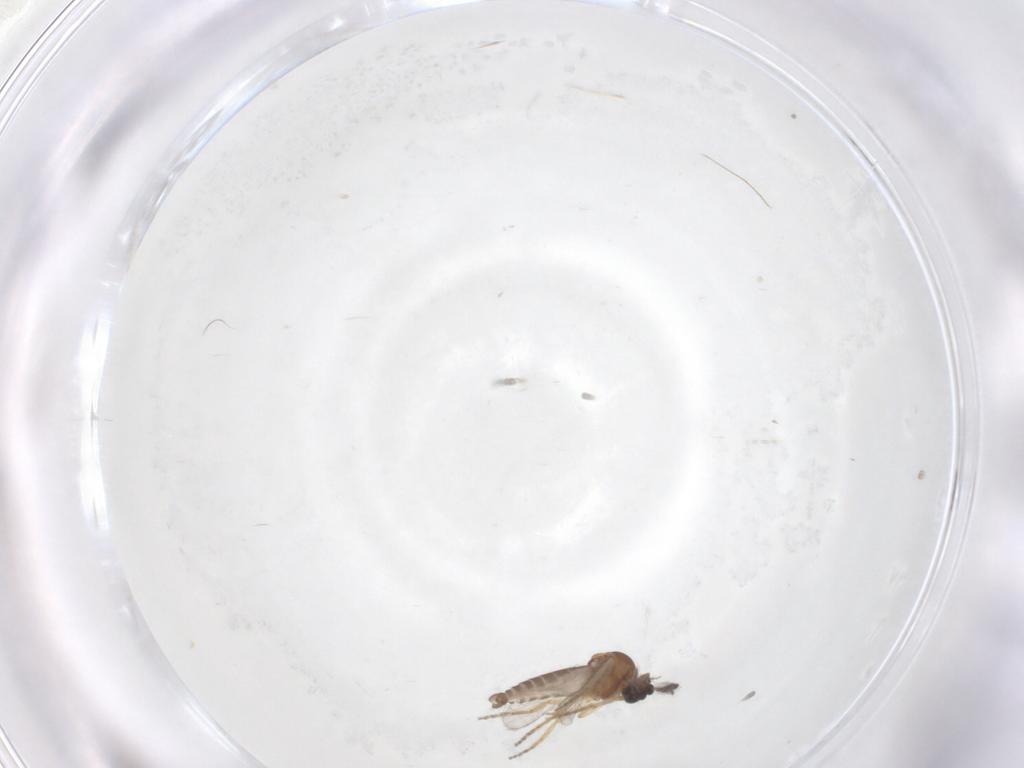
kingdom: Animalia
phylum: Arthropoda
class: Insecta
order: Diptera
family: Ceratopogonidae
